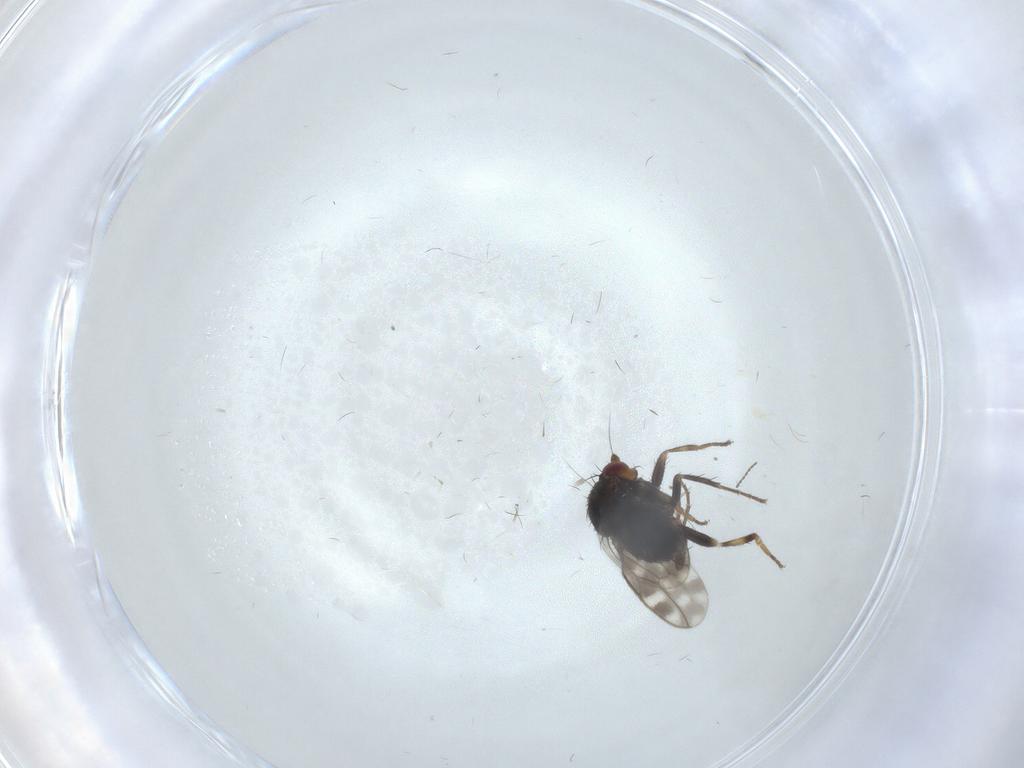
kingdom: Animalia
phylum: Arthropoda
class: Insecta
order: Diptera
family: Sphaeroceridae
